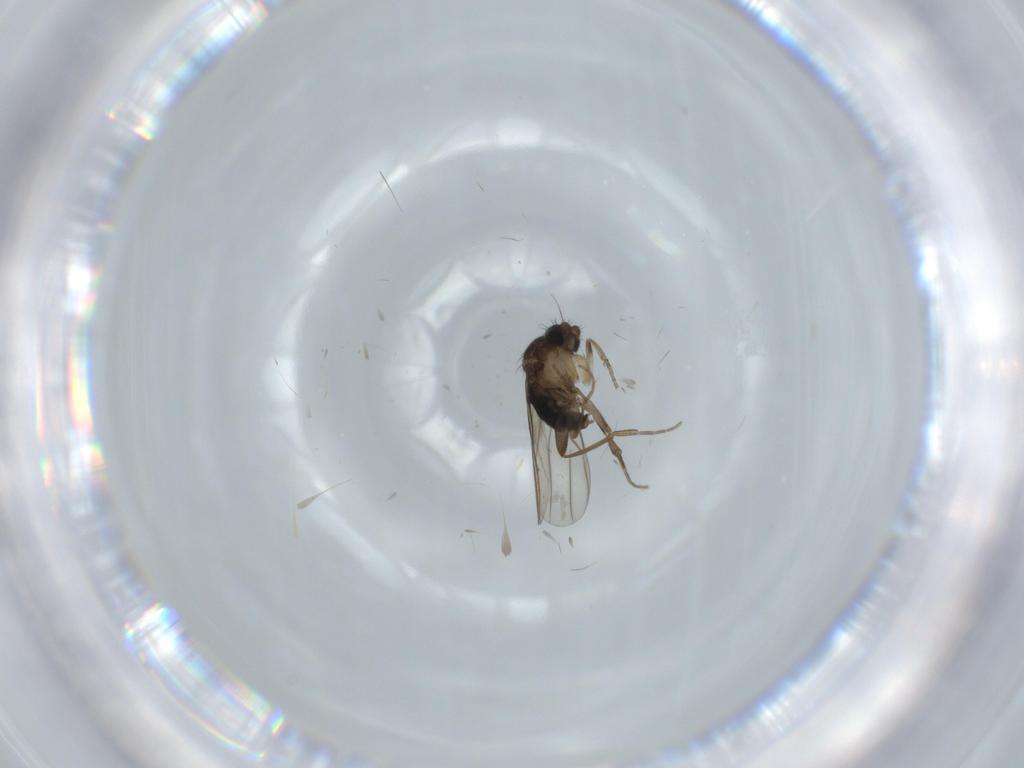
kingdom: Animalia
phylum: Arthropoda
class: Insecta
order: Diptera
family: Phoridae
